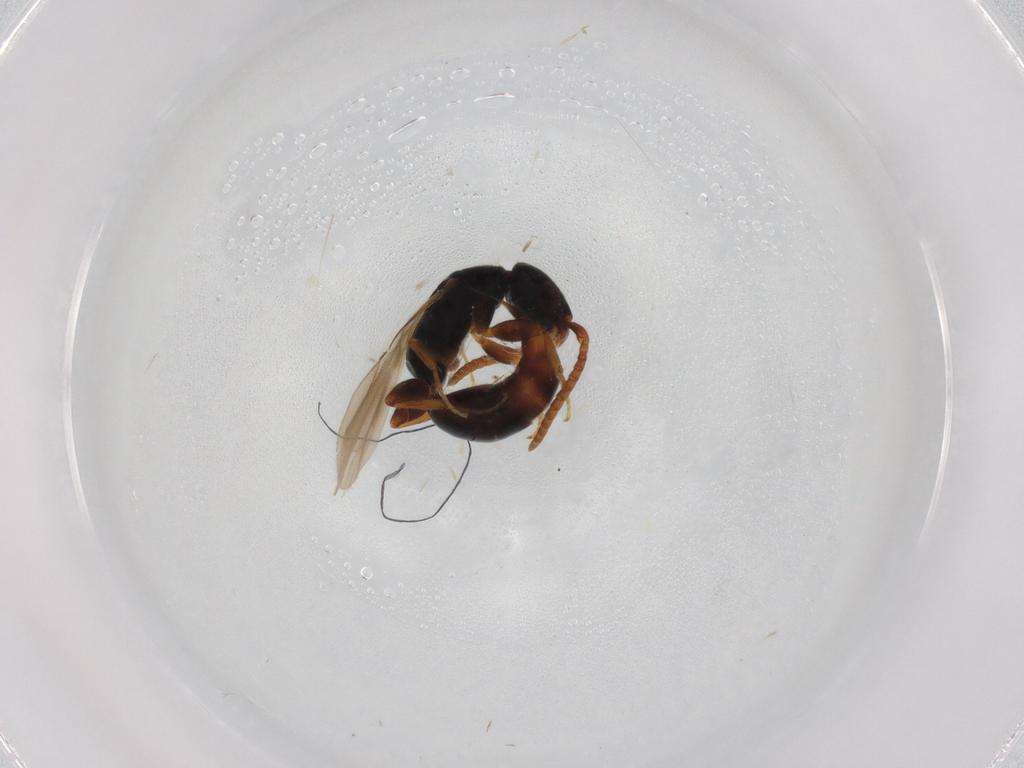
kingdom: Animalia
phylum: Arthropoda
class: Insecta
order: Hymenoptera
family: Bethylidae
